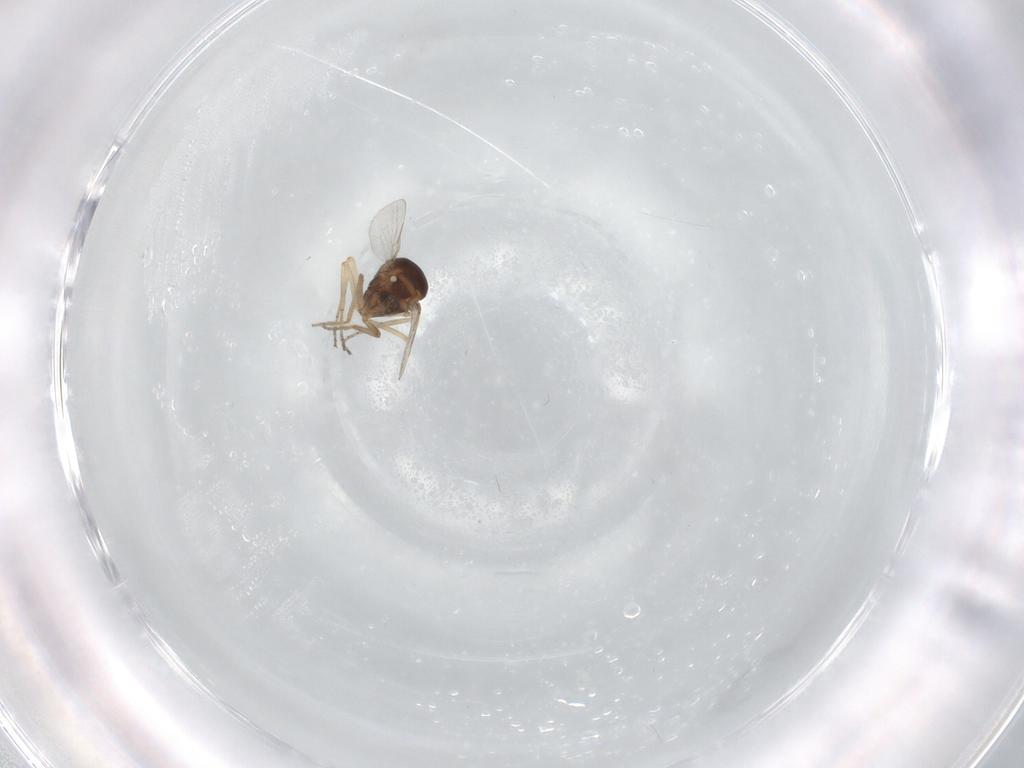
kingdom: Animalia
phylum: Arthropoda
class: Insecta
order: Diptera
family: Ceratopogonidae
